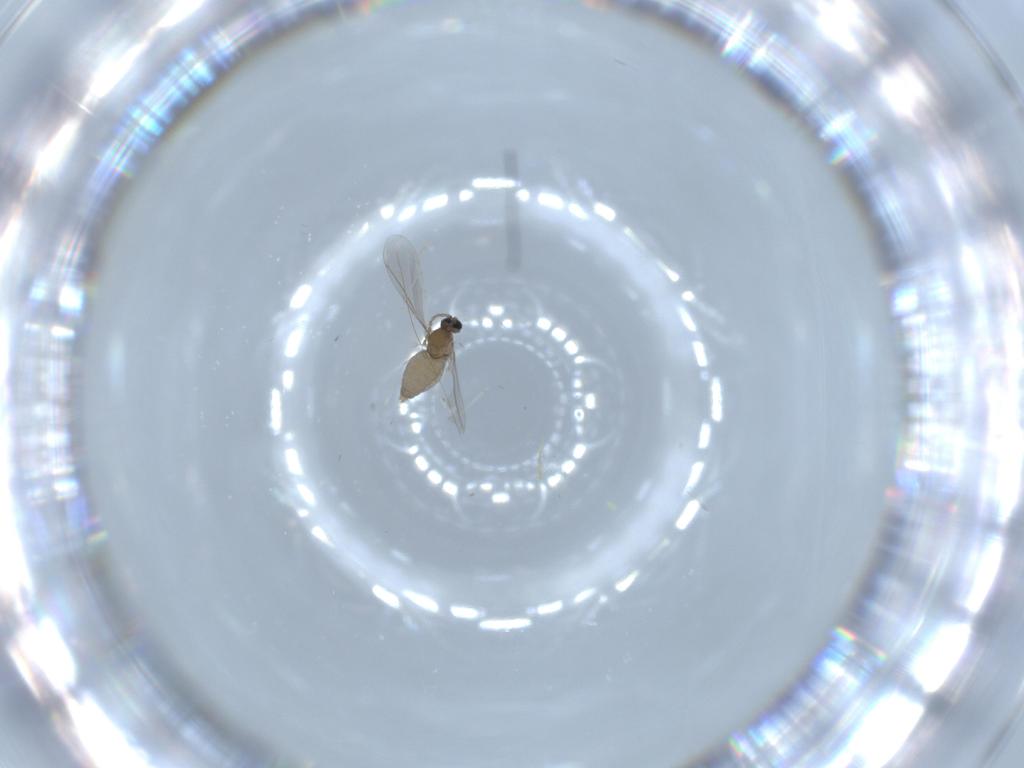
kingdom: Animalia
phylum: Arthropoda
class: Insecta
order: Diptera
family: Cecidomyiidae
